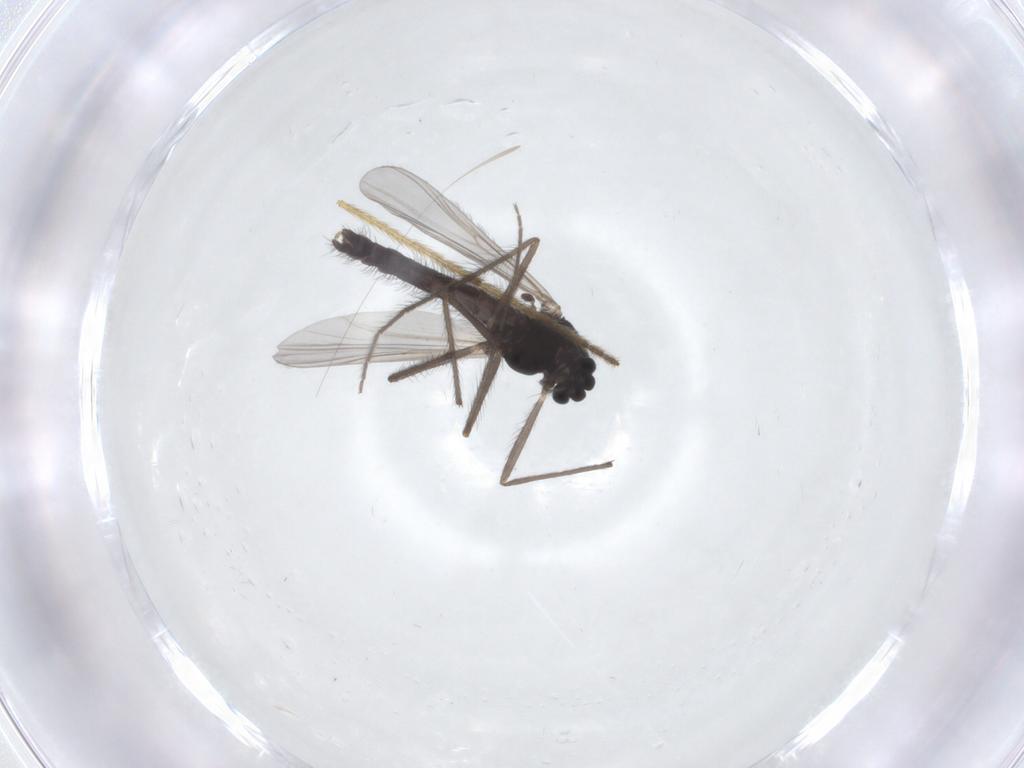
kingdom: Animalia
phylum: Arthropoda
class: Insecta
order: Diptera
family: Chironomidae
